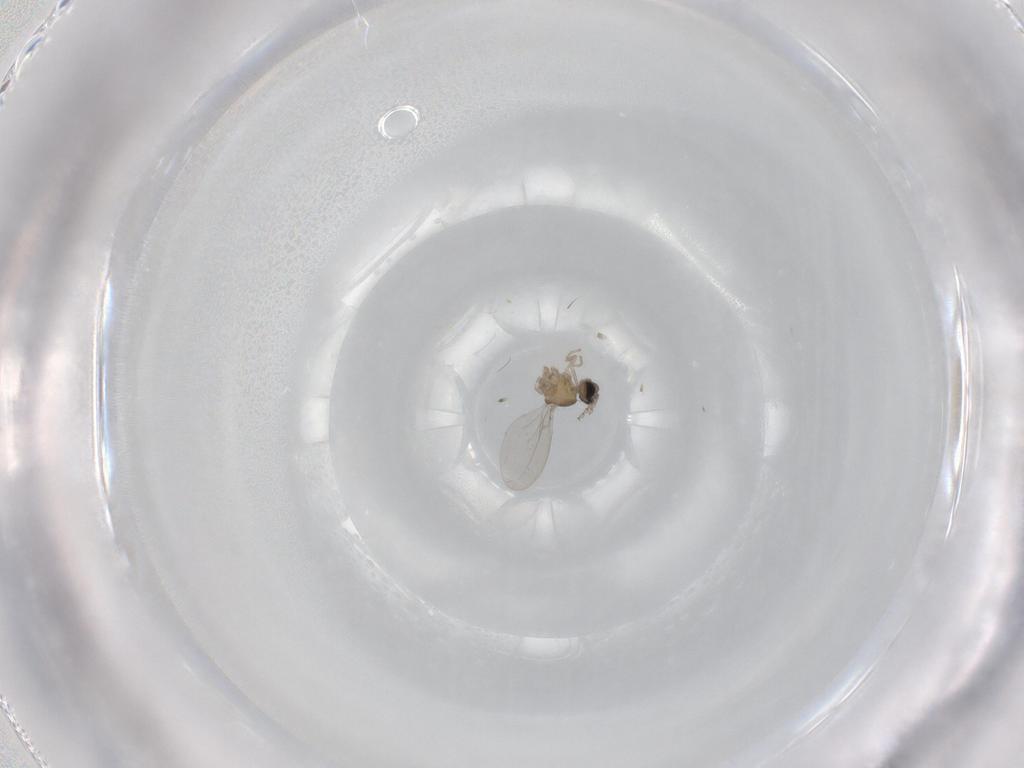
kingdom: Animalia
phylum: Arthropoda
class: Insecta
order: Diptera
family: Cecidomyiidae
